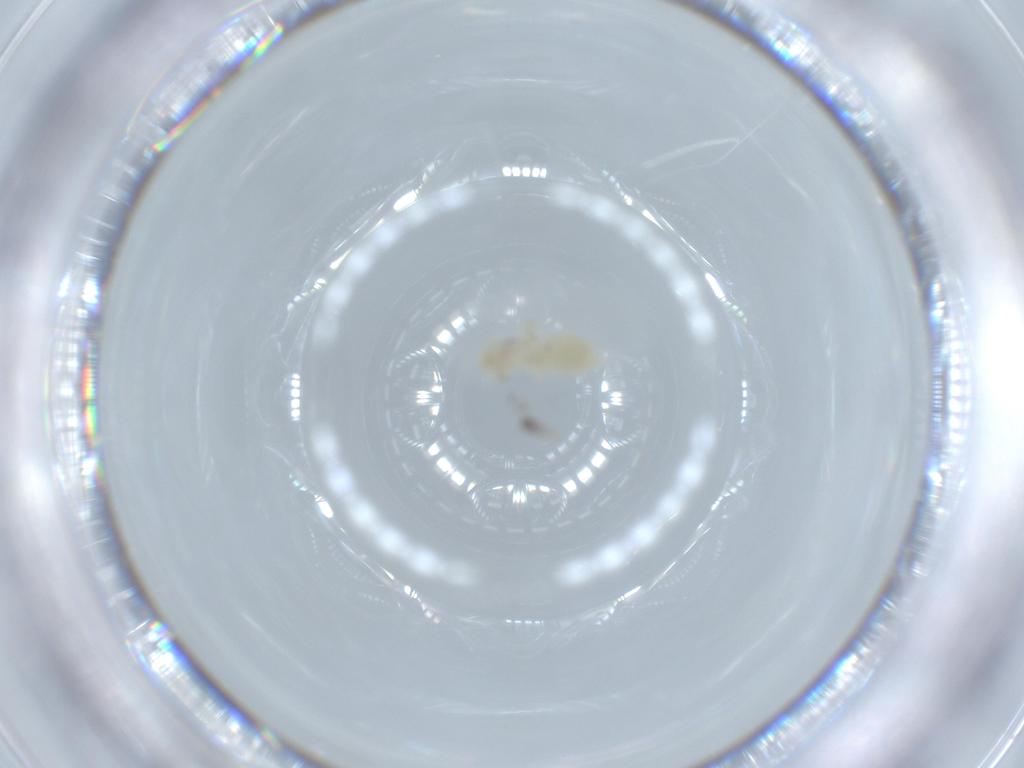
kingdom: Animalia
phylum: Arthropoda
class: Insecta
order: Psocodea
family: Caeciliusidae
